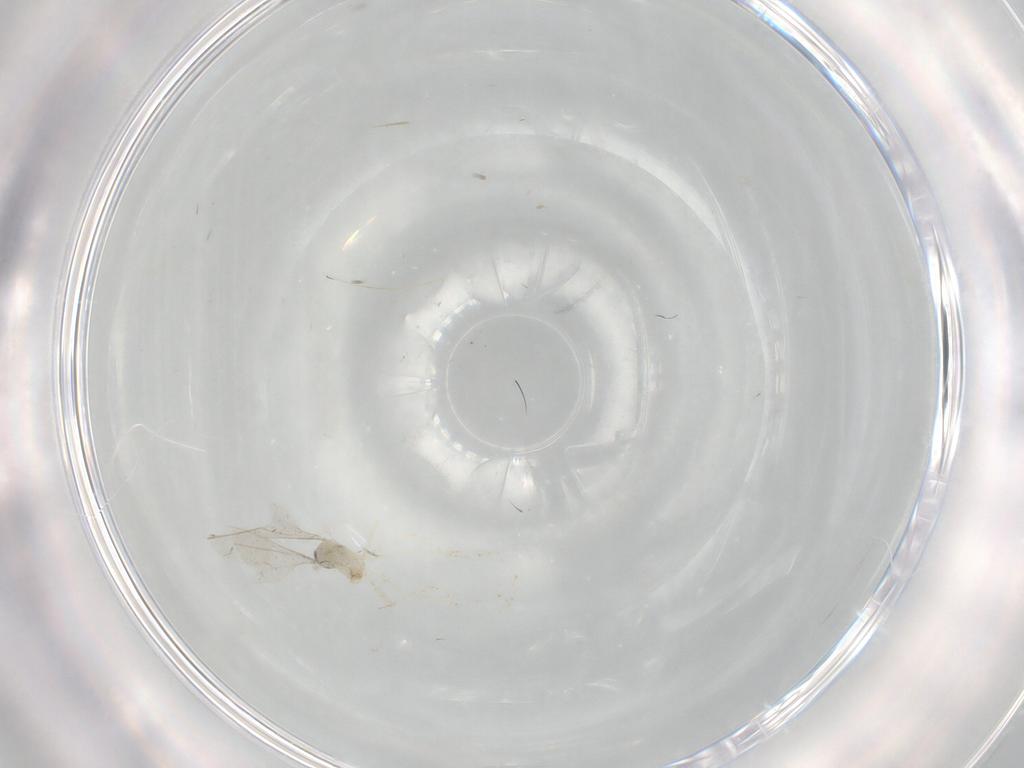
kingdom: Animalia
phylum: Arthropoda
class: Insecta
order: Diptera
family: Cecidomyiidae
